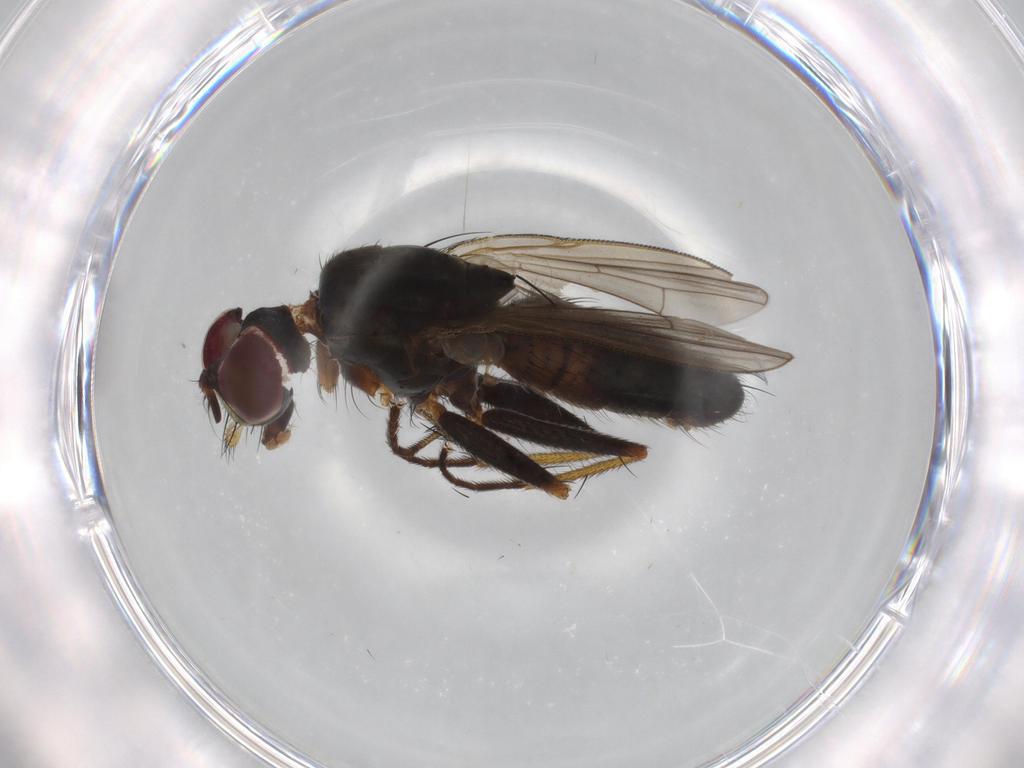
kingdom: Animalia
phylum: Arthropoda
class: Insecta
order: Diptera
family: Muscidae
